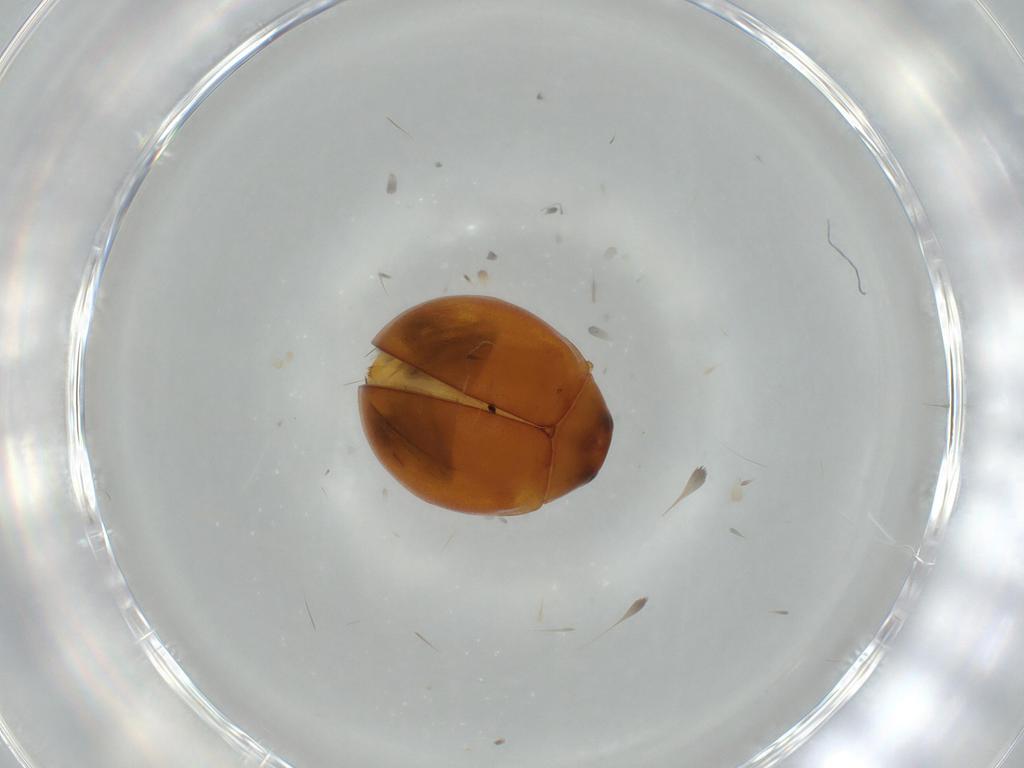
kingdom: Animalia
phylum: Arthropoda
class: Insecta
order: Coleoptera
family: Coccinellidae
